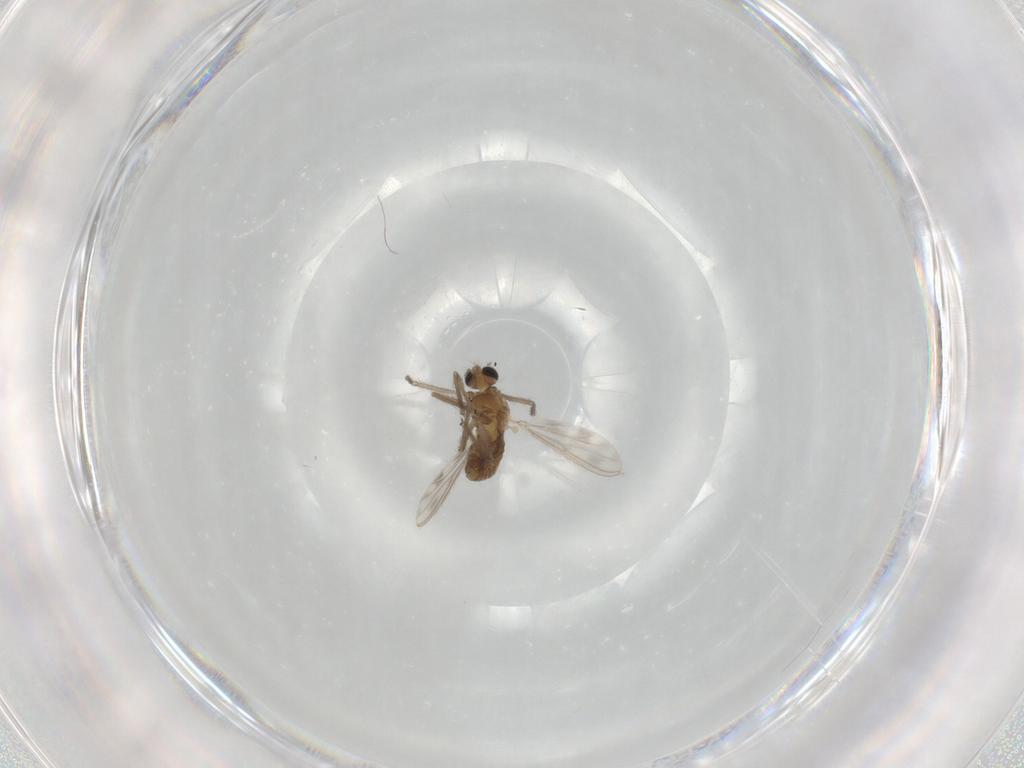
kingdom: Animalia
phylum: Arthropoda
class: Insecta
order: Diptera
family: Chironomidae
